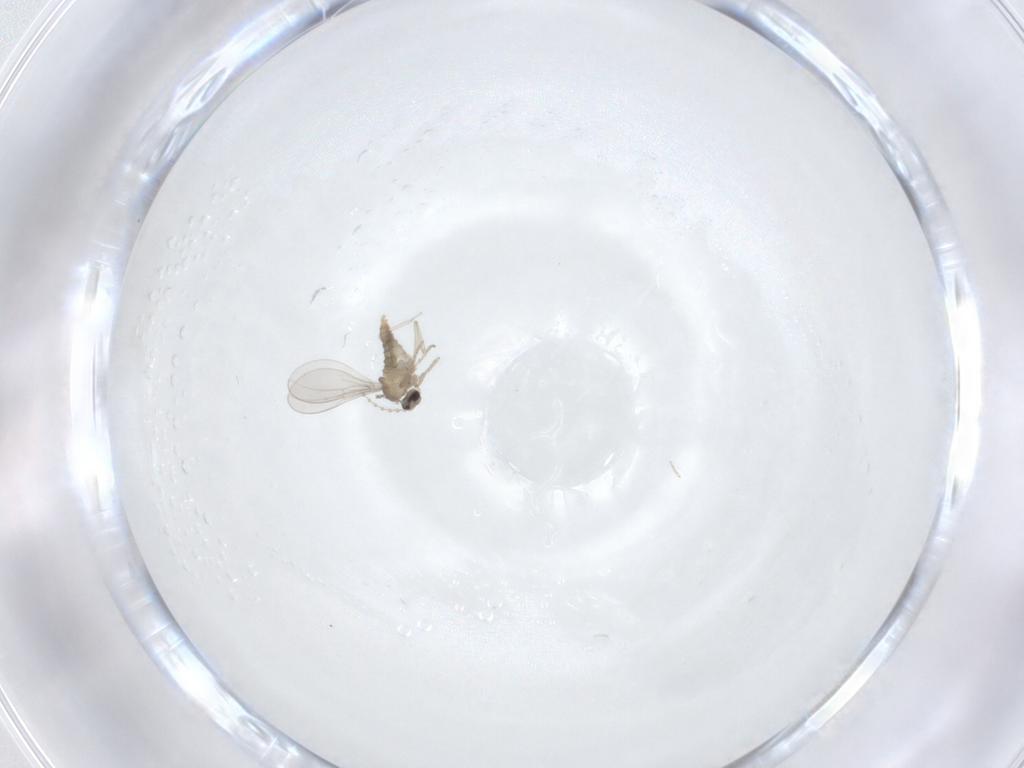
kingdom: Animalia
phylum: Arthropoda
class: Insecta
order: Diptera
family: Cecidomyiidae
